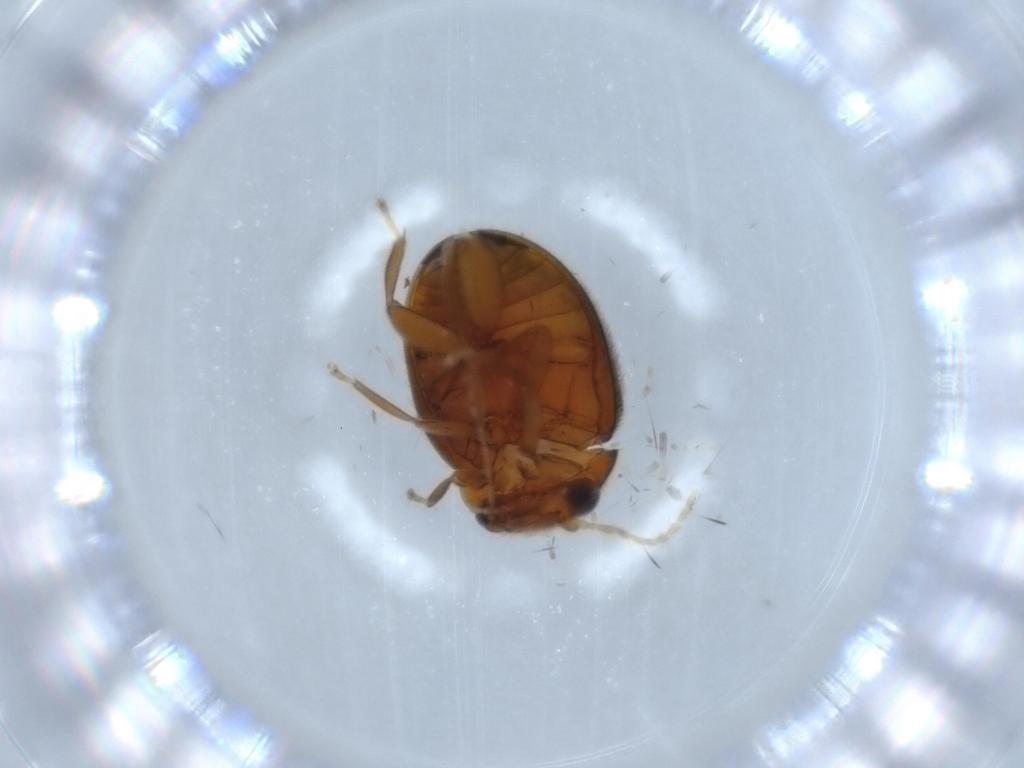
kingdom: Animalia
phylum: Arthropoda
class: Insecta
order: Coleoptera
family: Scirtidae
